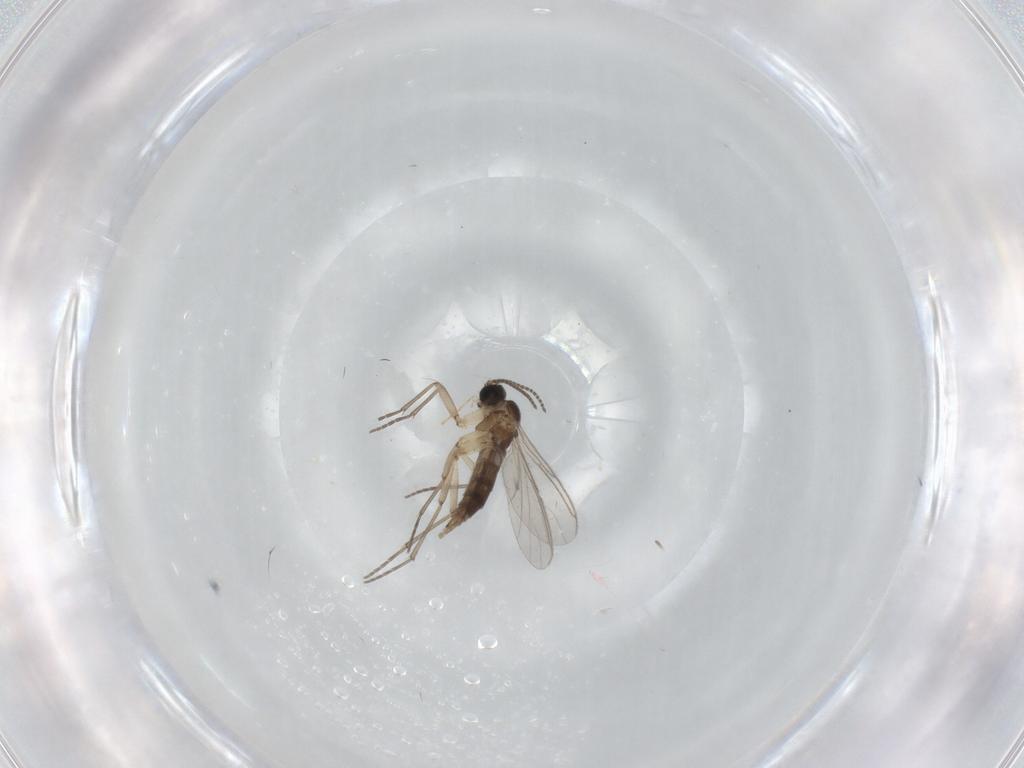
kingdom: Animalia
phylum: Arthropoda
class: Insecta
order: Diptera
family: Sciaridae
